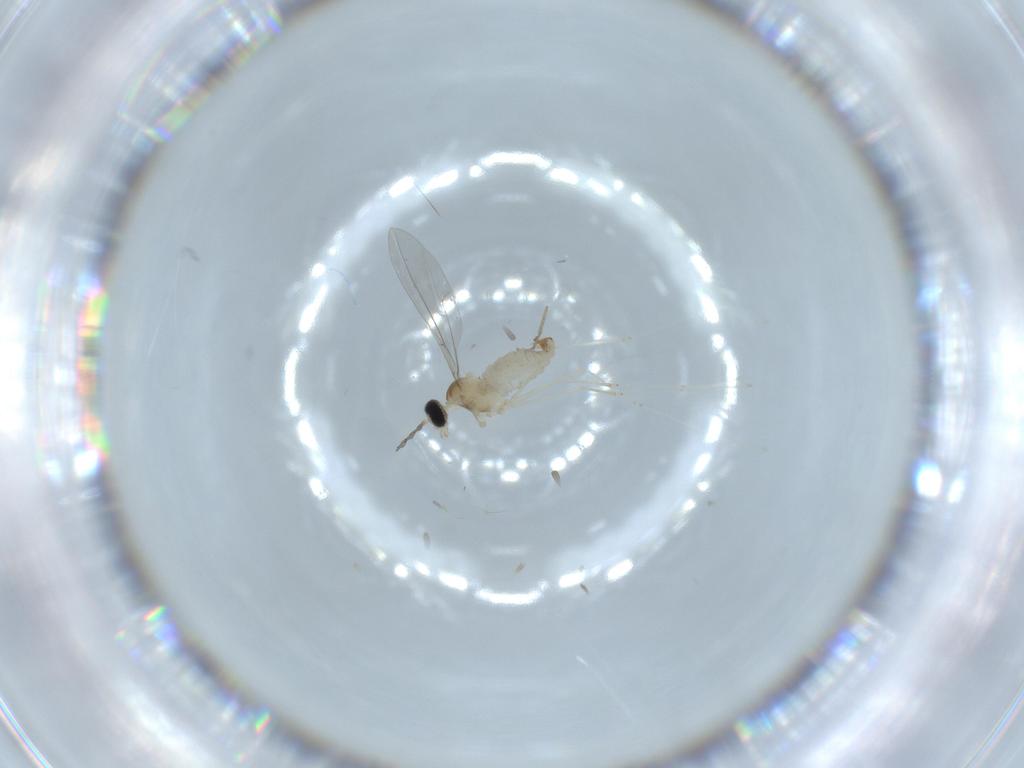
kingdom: Animalia
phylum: Arthropoda
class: Insecta
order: Diptera
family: Cecidomyiidae
